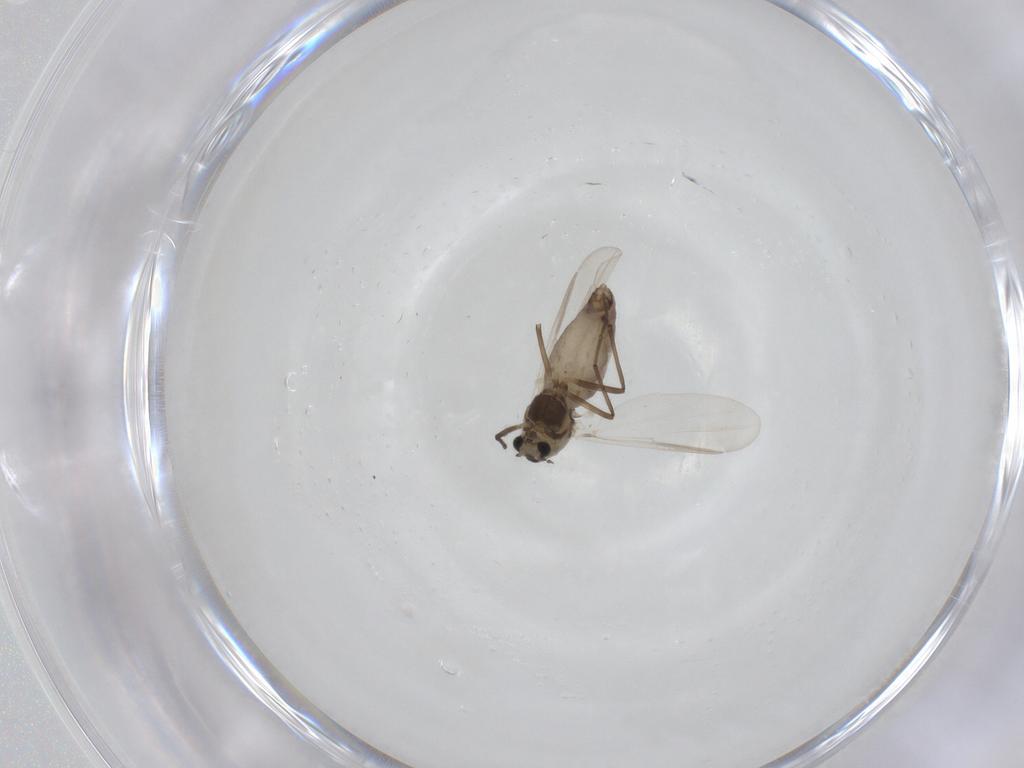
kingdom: Animalia
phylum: Arthropoda
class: Insecta
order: Diptera
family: Chironomidae
